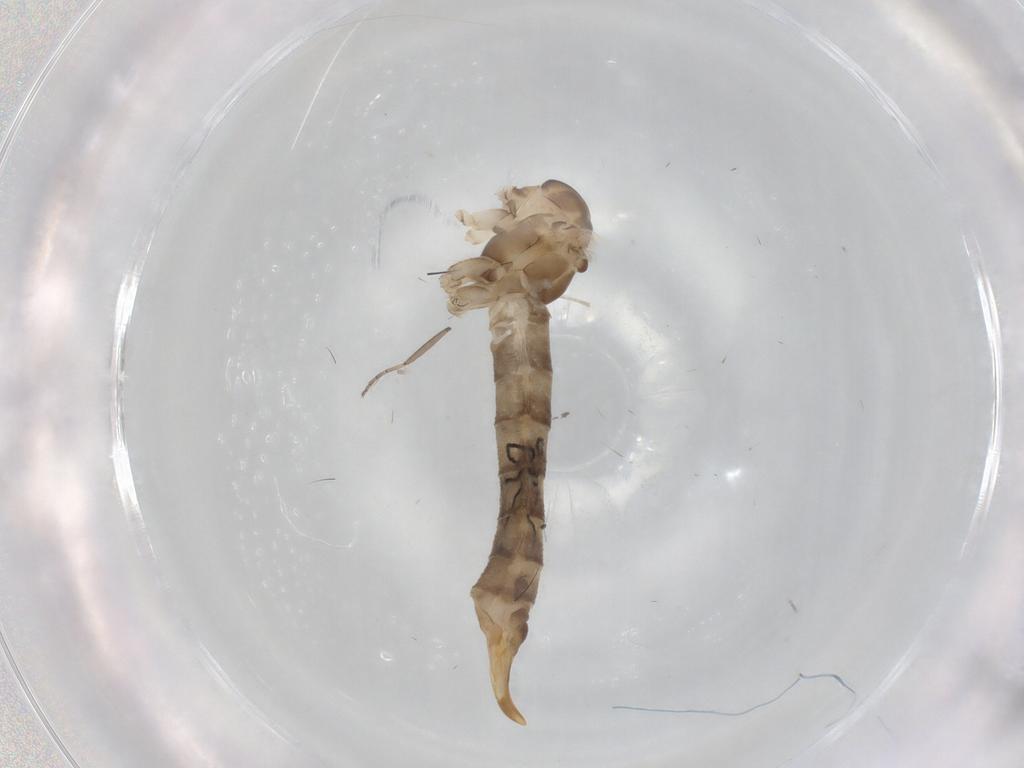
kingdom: Animalia
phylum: Arthropoda
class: Insecta
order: Diptera
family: Pediciidae
